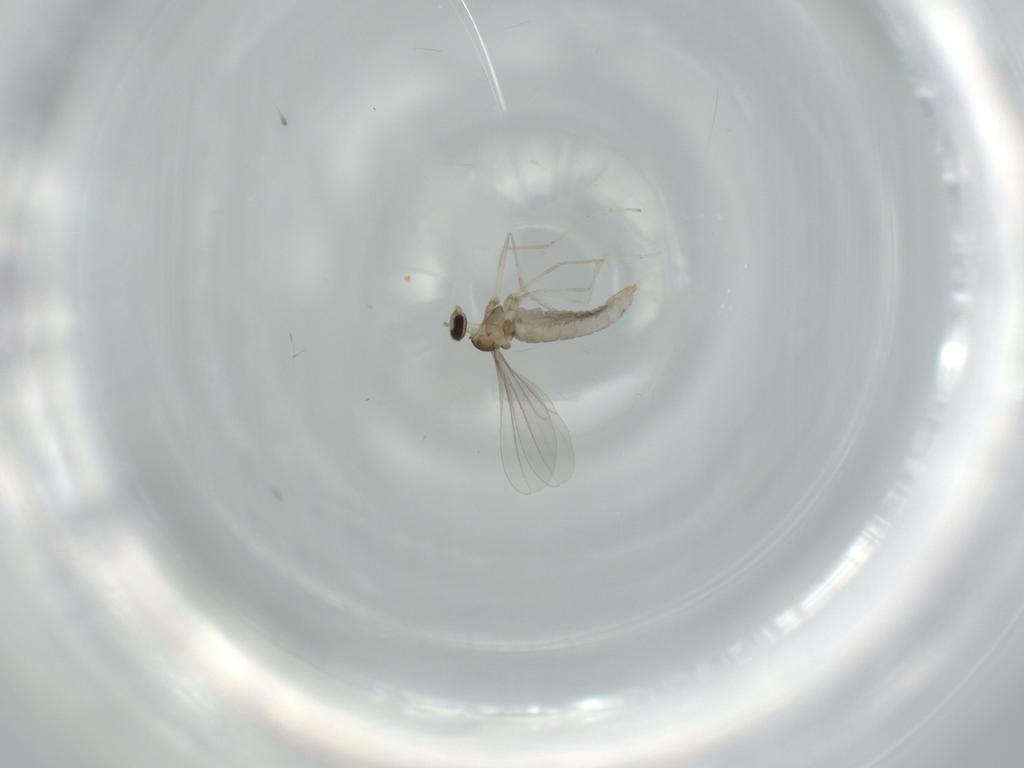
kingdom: Animalia
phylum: Arthropoda
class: Insecta
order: Diptera
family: Cecidomyiidae
